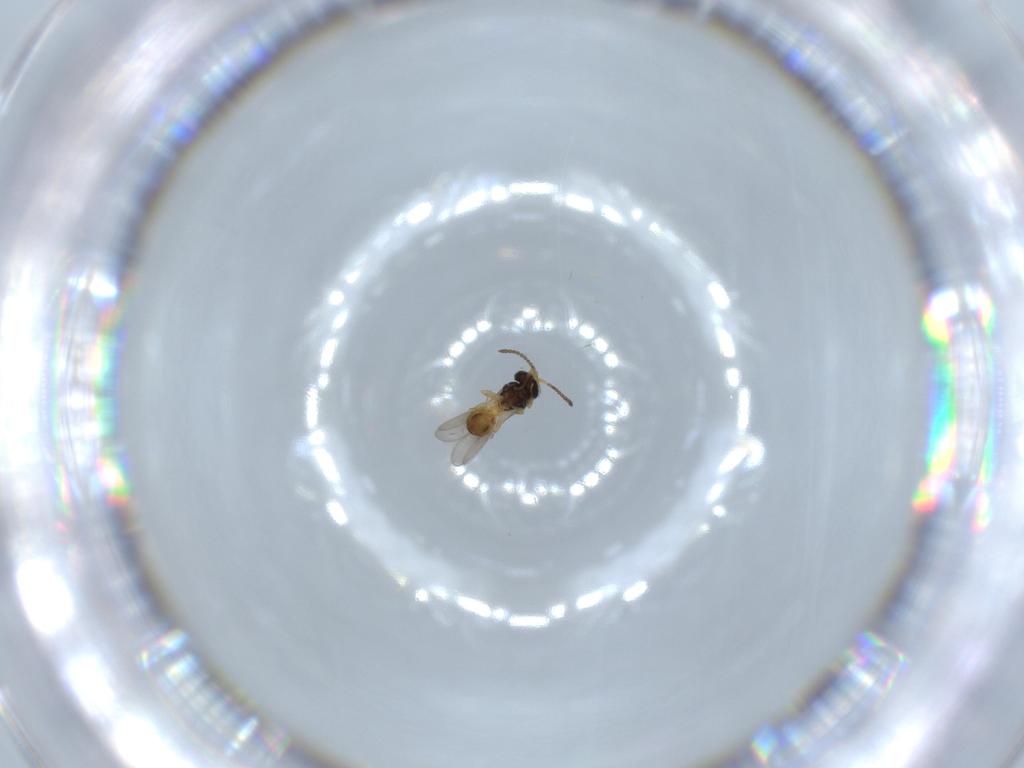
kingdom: Animalia
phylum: Arthropoda
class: Insecta
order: Hymenoptera
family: Scelionidae
